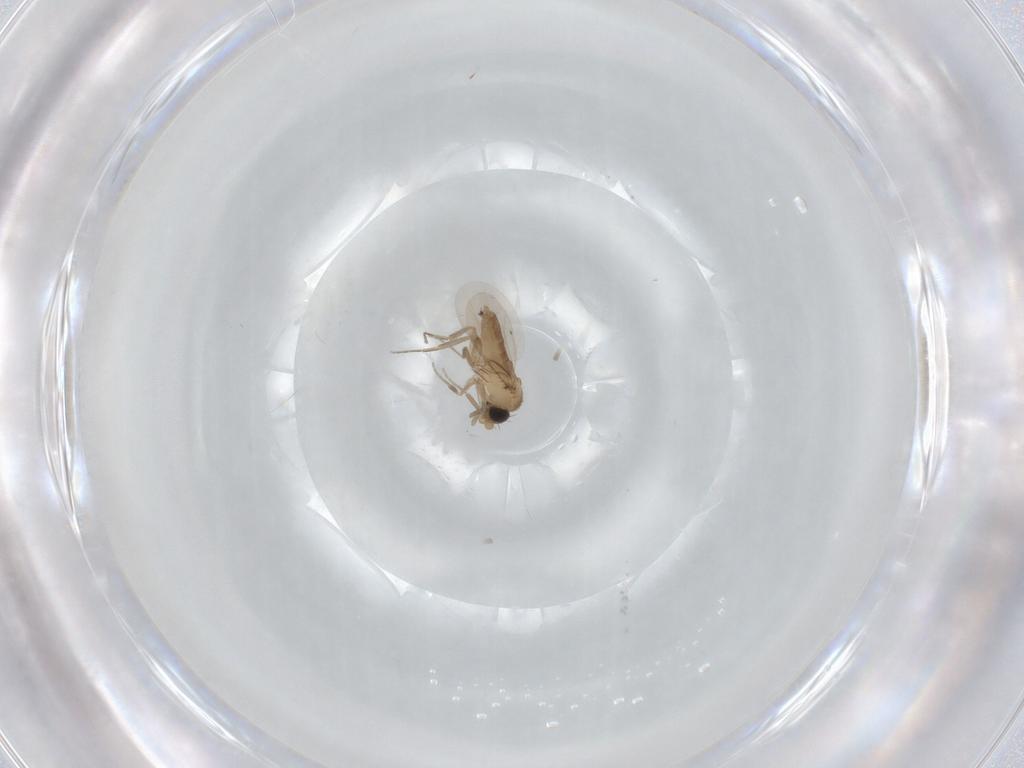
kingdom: Animalia
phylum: Arthropoda
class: Insecta
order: Diptera
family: Phoridae
